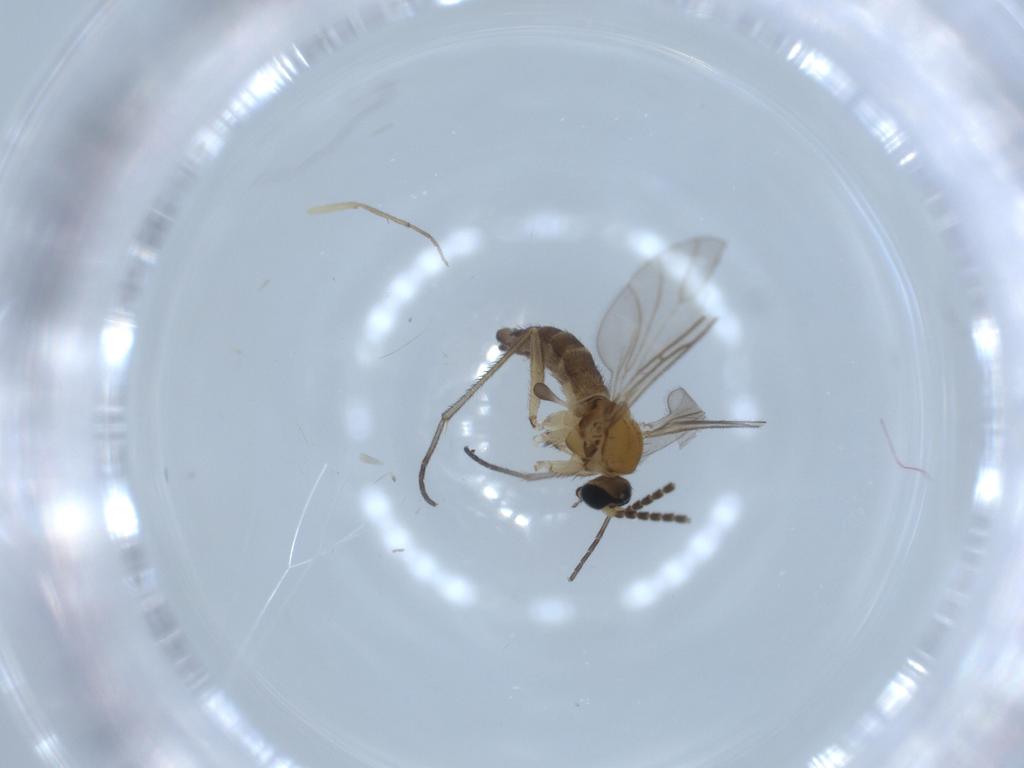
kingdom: Animalia
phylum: Arthropoda
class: Insecta
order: Diptera
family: Sciaridae
